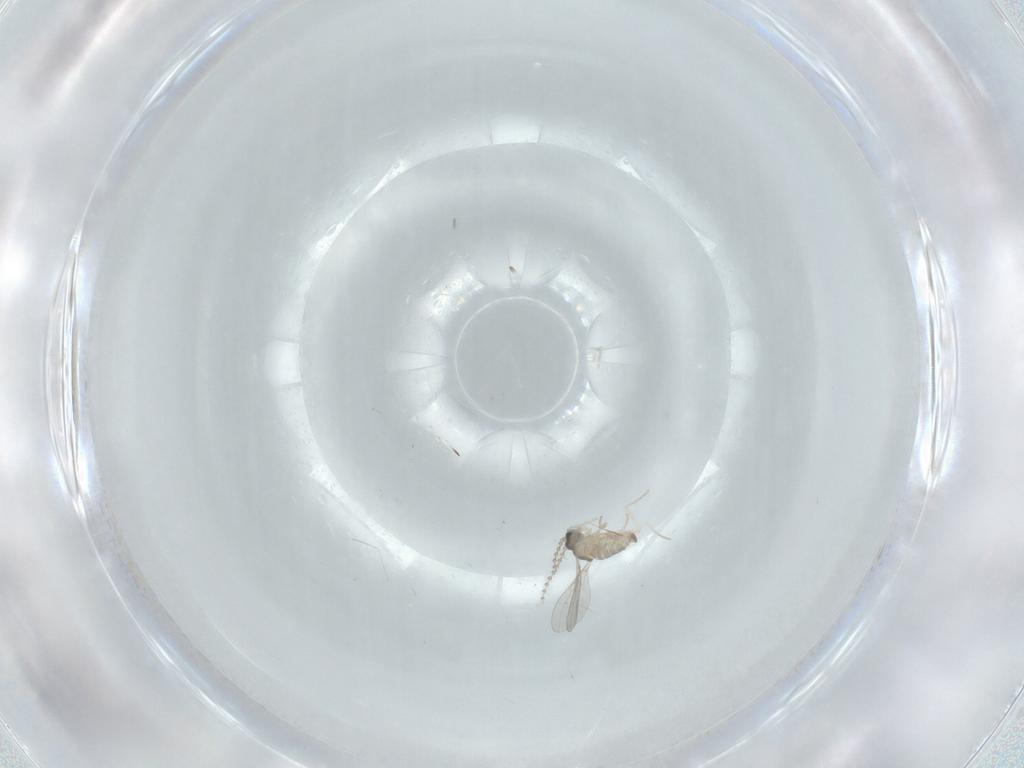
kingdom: Animalia
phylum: Arthropoda
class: Insecta
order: Diptera
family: Cecidomyiidae
